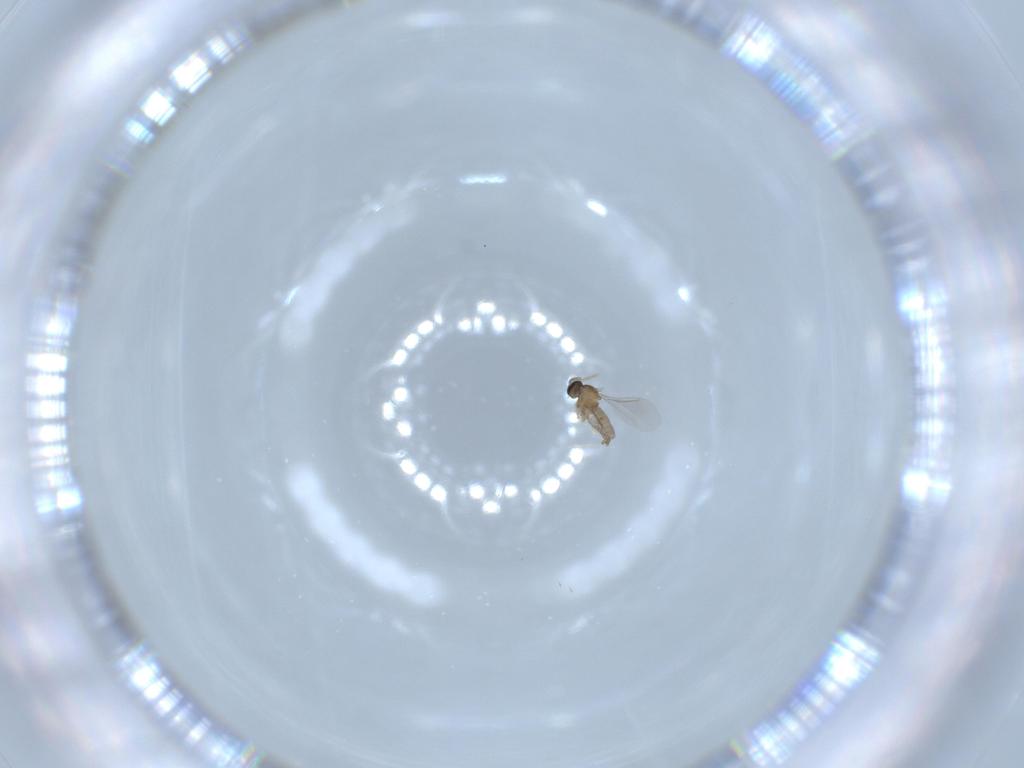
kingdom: Animalia
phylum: Arthropoda
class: Insecta
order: Diptera
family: Cecidomyiidae
